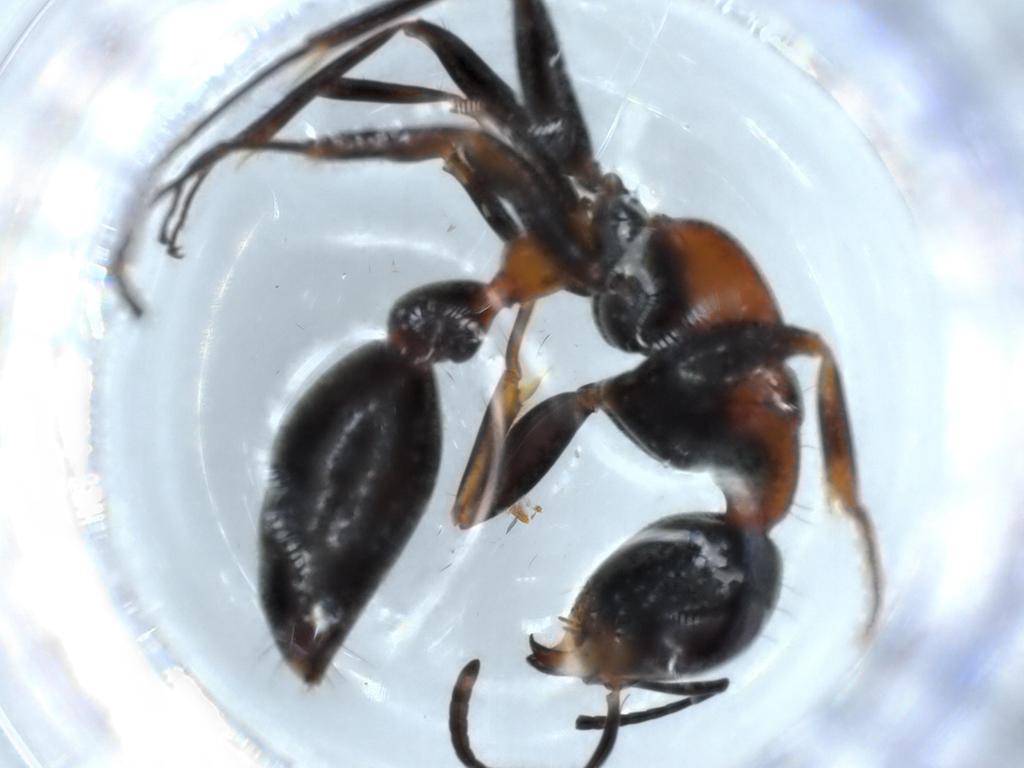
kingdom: Animalia
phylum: Arthropoda
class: Insecta
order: Hymenoptera
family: Formicidae
